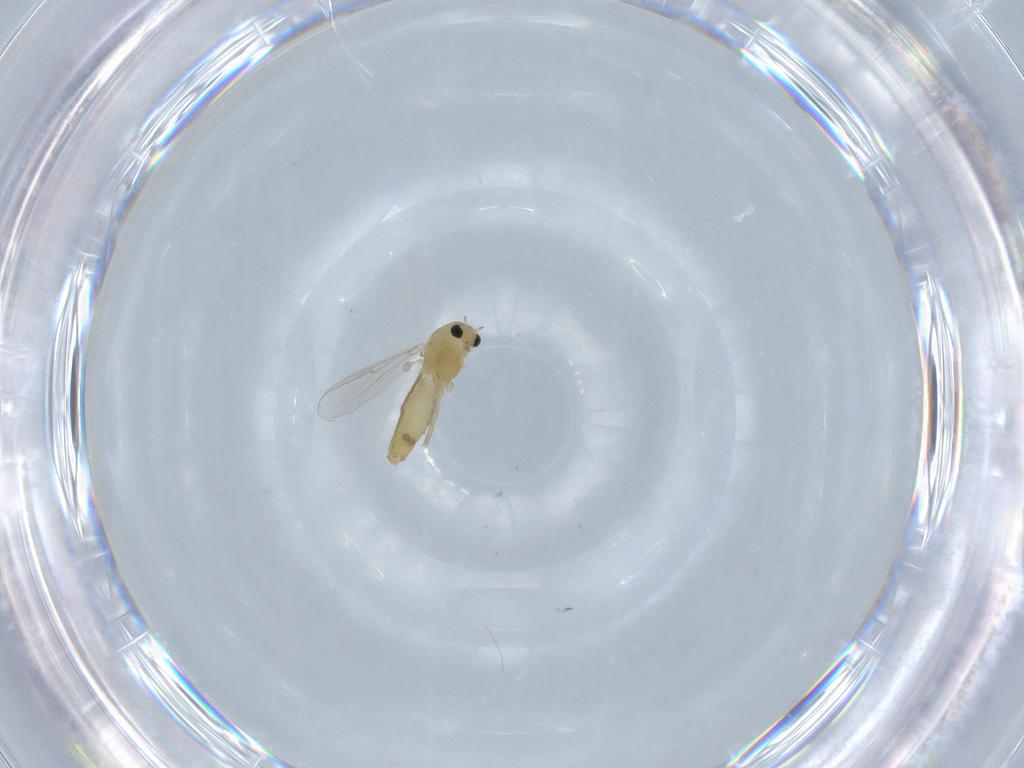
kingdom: Animalia
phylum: Arthropoda
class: Insecta
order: Diptera
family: Chironomidae
